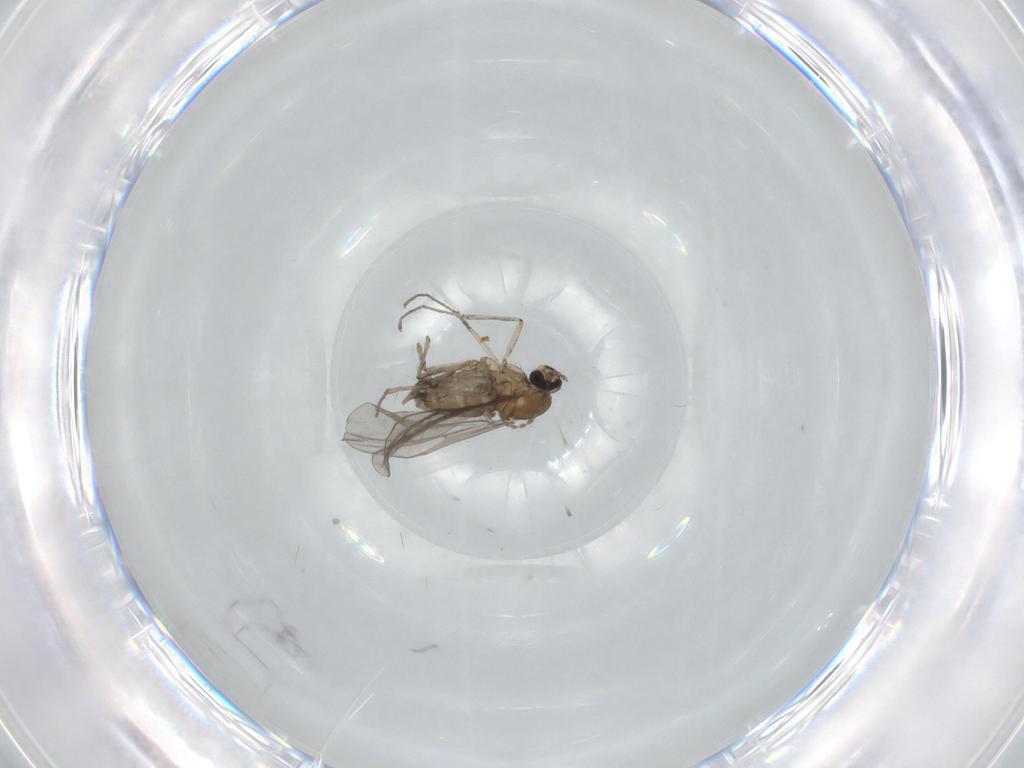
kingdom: Animalia
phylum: Arthropoda
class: Insecta
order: Diptera
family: Cecidomyiidae
